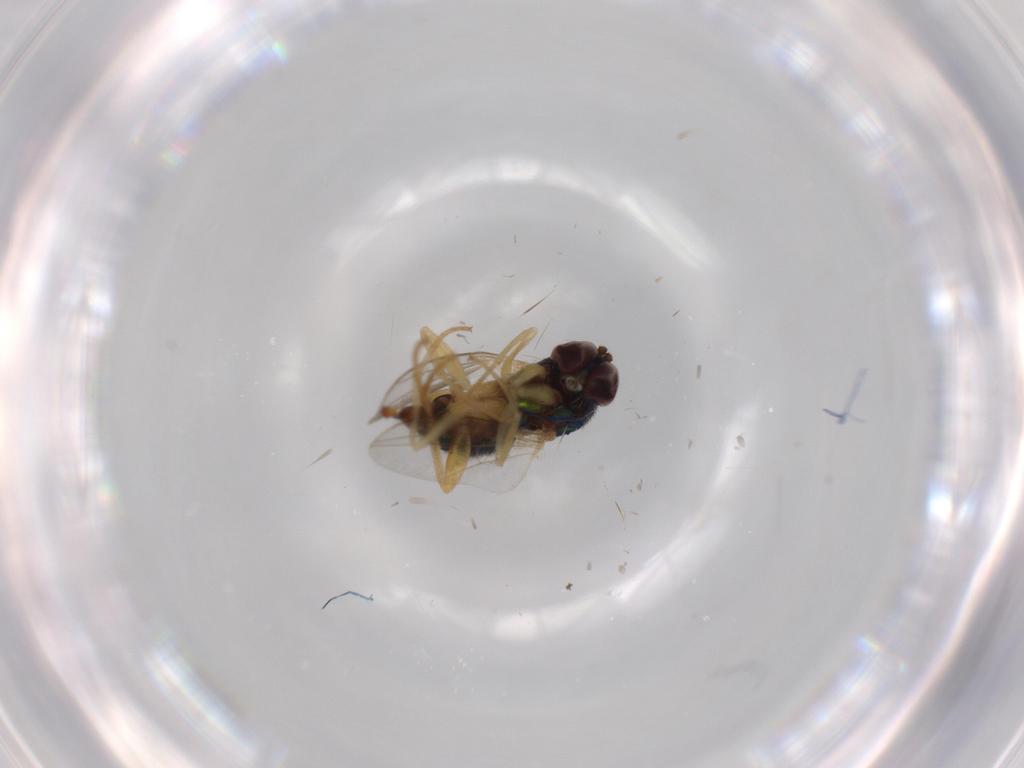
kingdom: Animalia
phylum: Arthropoda
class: Insecta
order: Diptera
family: Dolichopodidae
